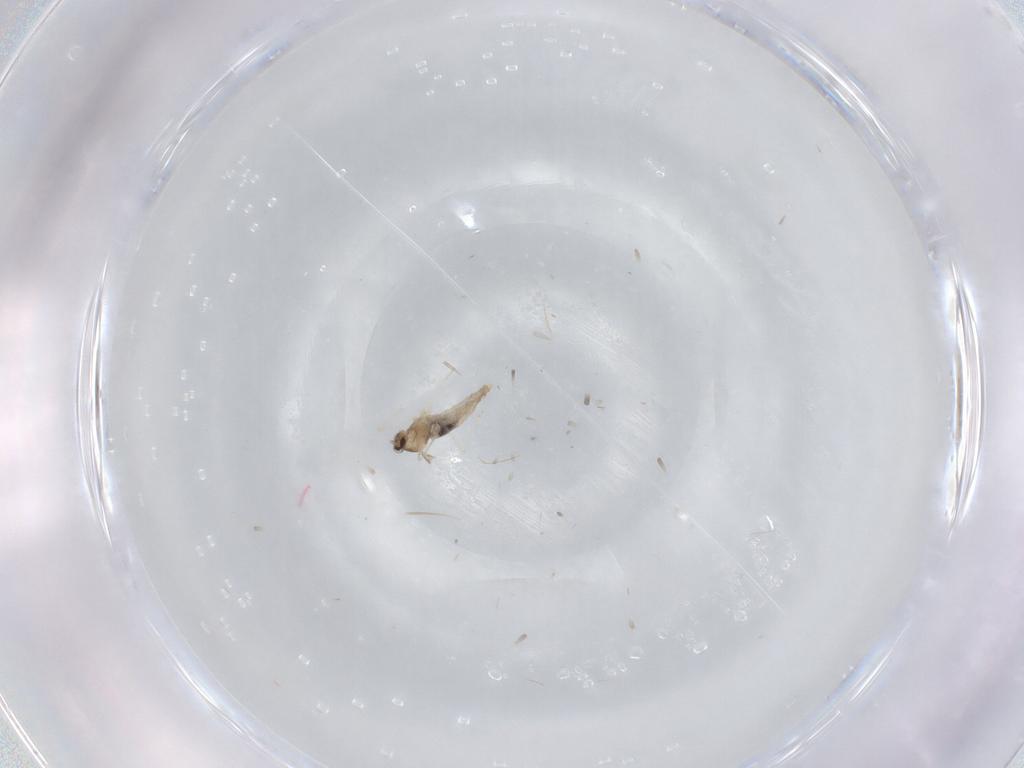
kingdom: Animalia
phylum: Arthropoda
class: Insecta
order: Diptera
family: Cecidomyiidae
